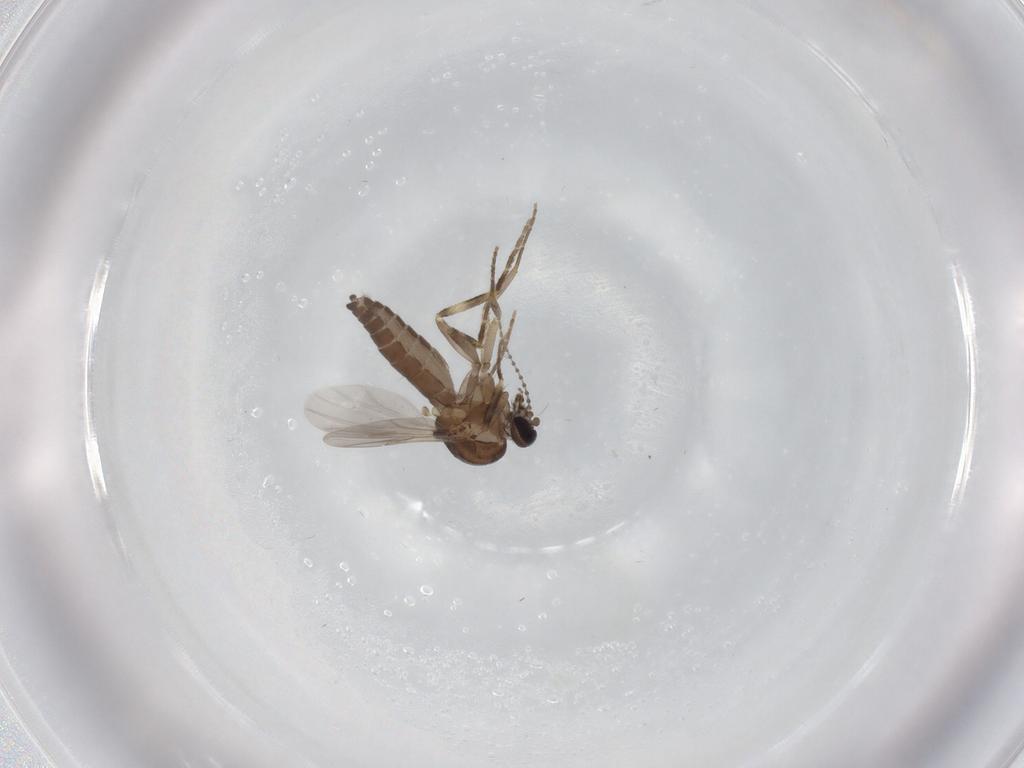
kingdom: Animalia
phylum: Arthropoda
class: Insecta
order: Diptera
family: Ceratopogonidae
